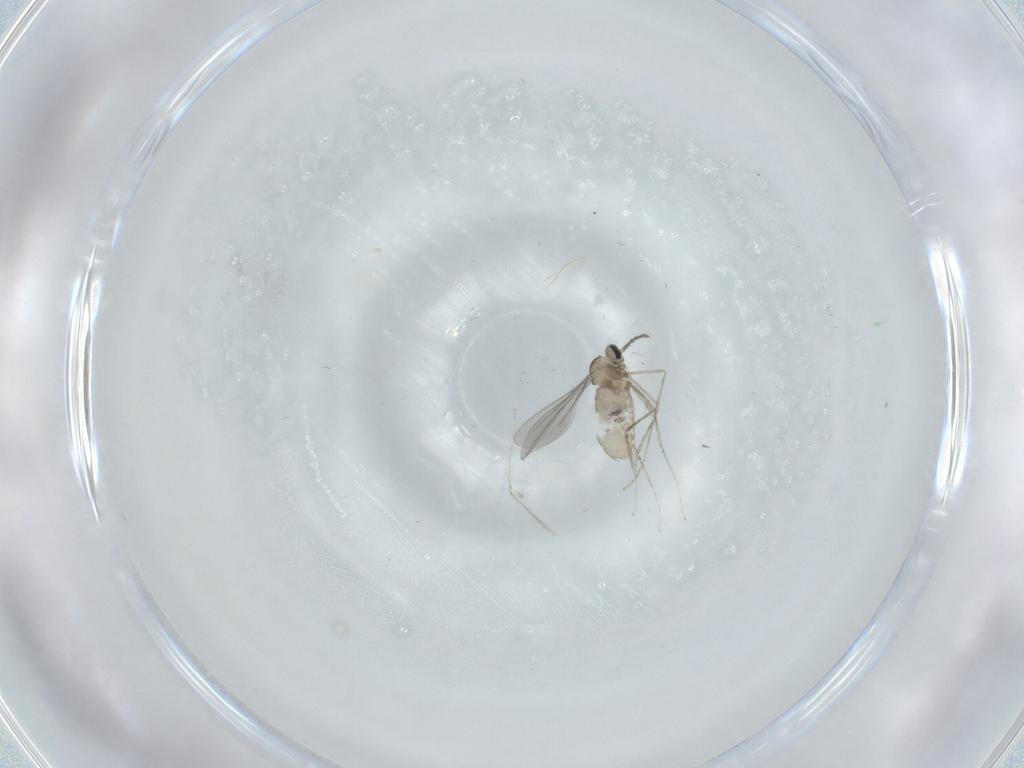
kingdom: Animalia
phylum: Arthropoda
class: Insecta
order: Diptera
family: Cecidomyiidae
